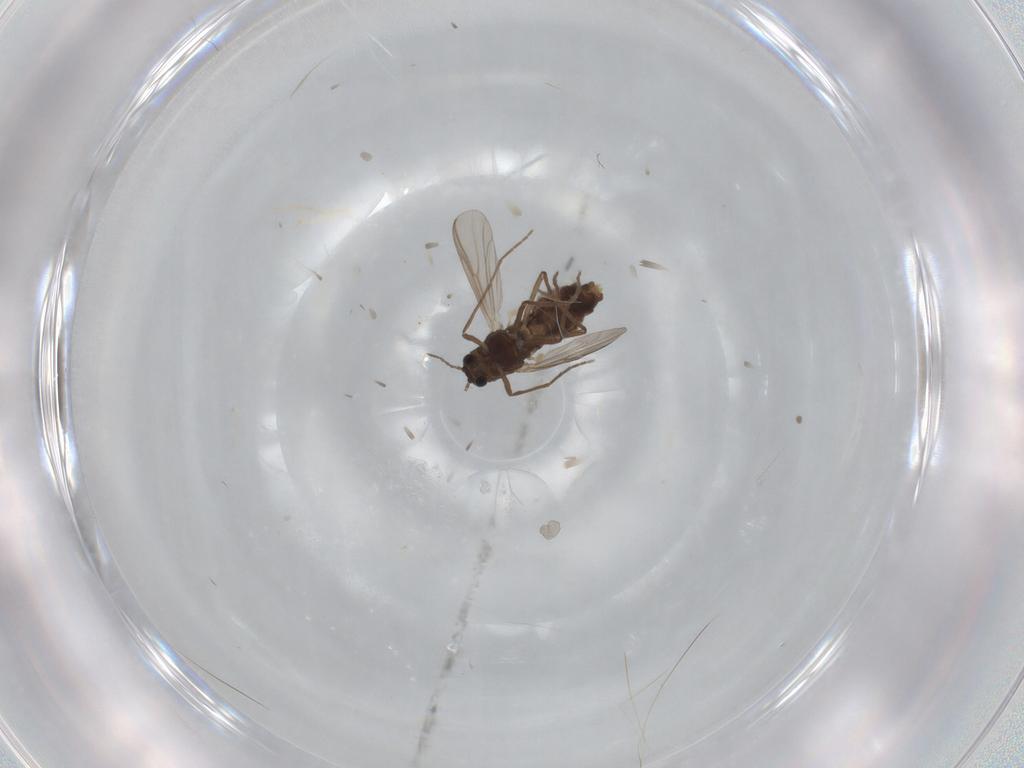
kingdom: Animalia
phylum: Arthropoda
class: Insecta
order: Diptera
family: Chironomidae
